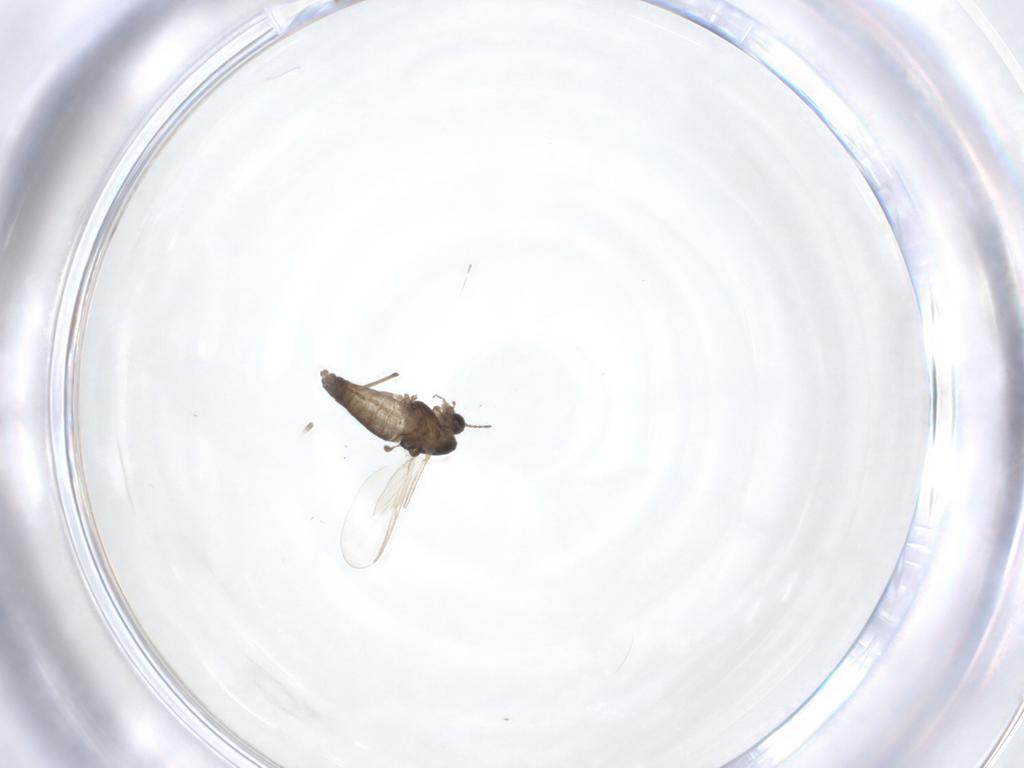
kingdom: Animalia
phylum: Arthropoda
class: Insecta
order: Diptera
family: Chironomidae
